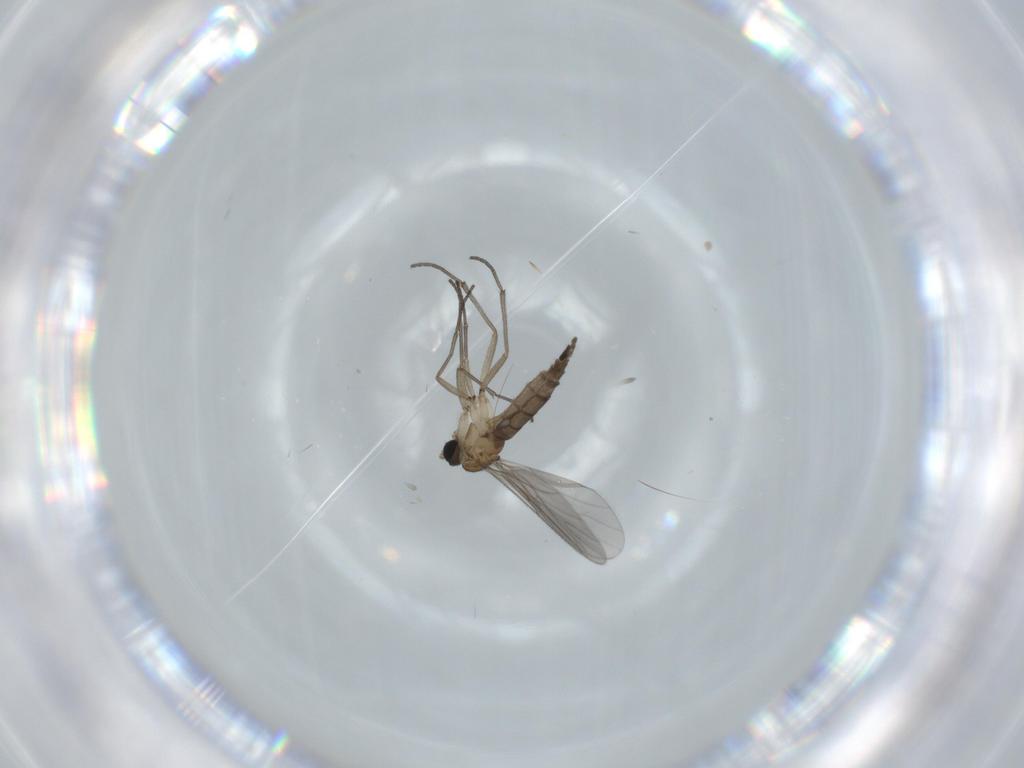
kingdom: Animalia
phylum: Arthropoda
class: Insecta
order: Diptera
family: Sciaridae
